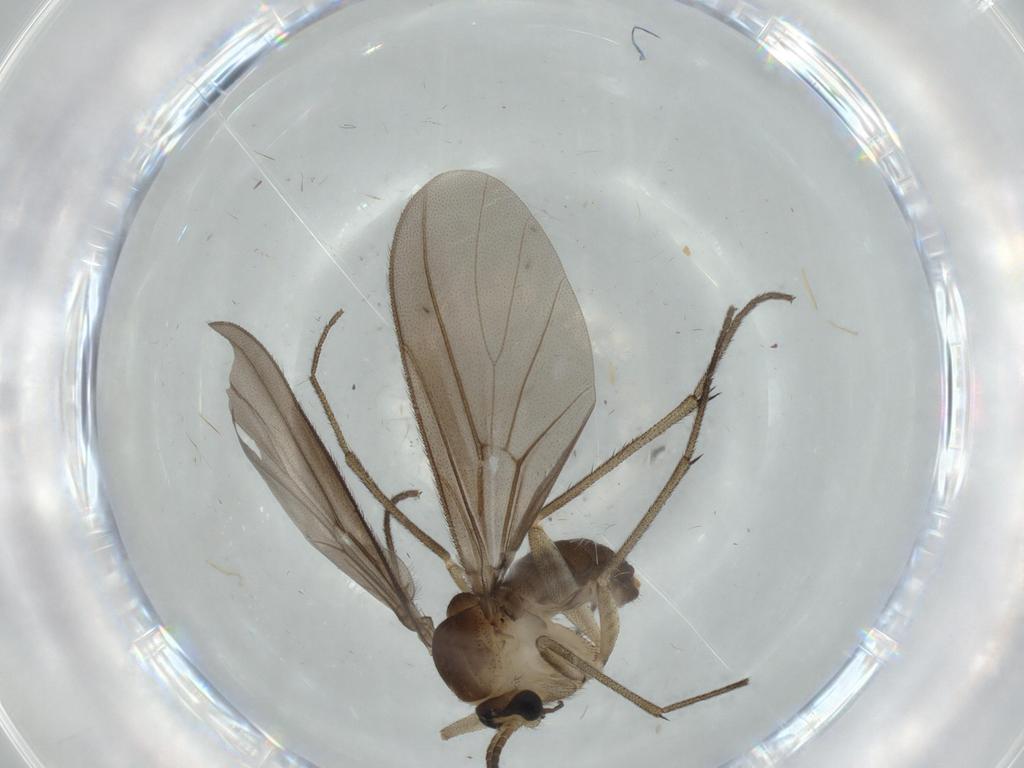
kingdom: Animalia
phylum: Arthropoda
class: Insecta
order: Diptera
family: Diadocidiidae
